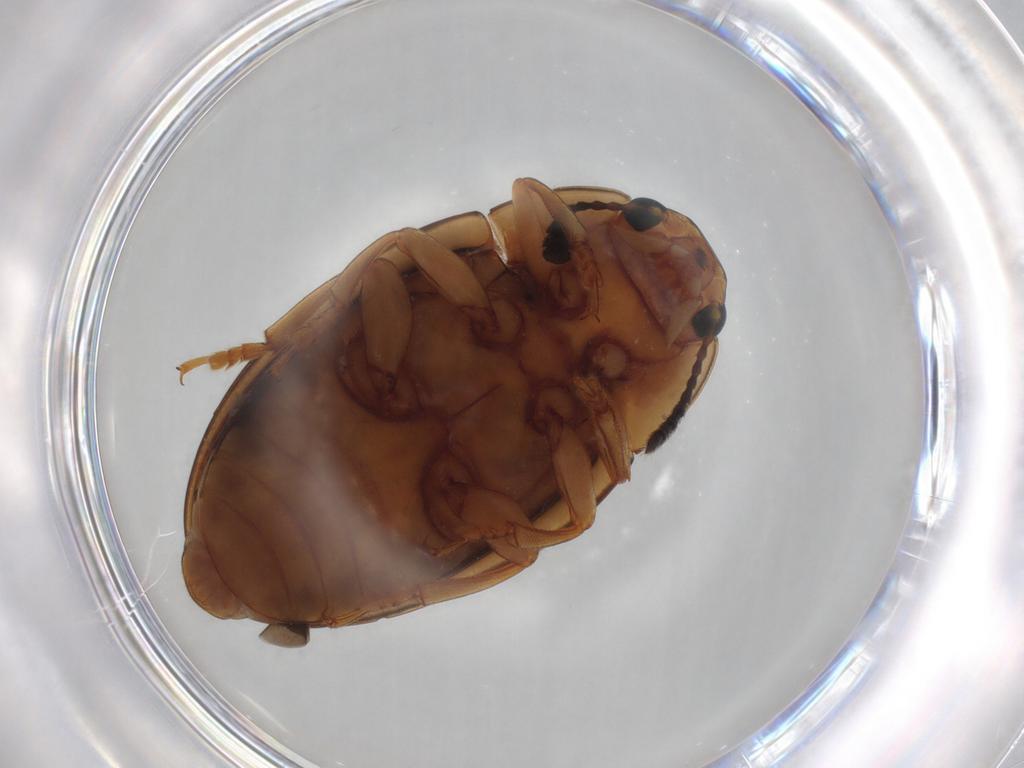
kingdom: Animalia
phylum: Arthropoda
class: Insecta
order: Coleoptera
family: Erotylidae
